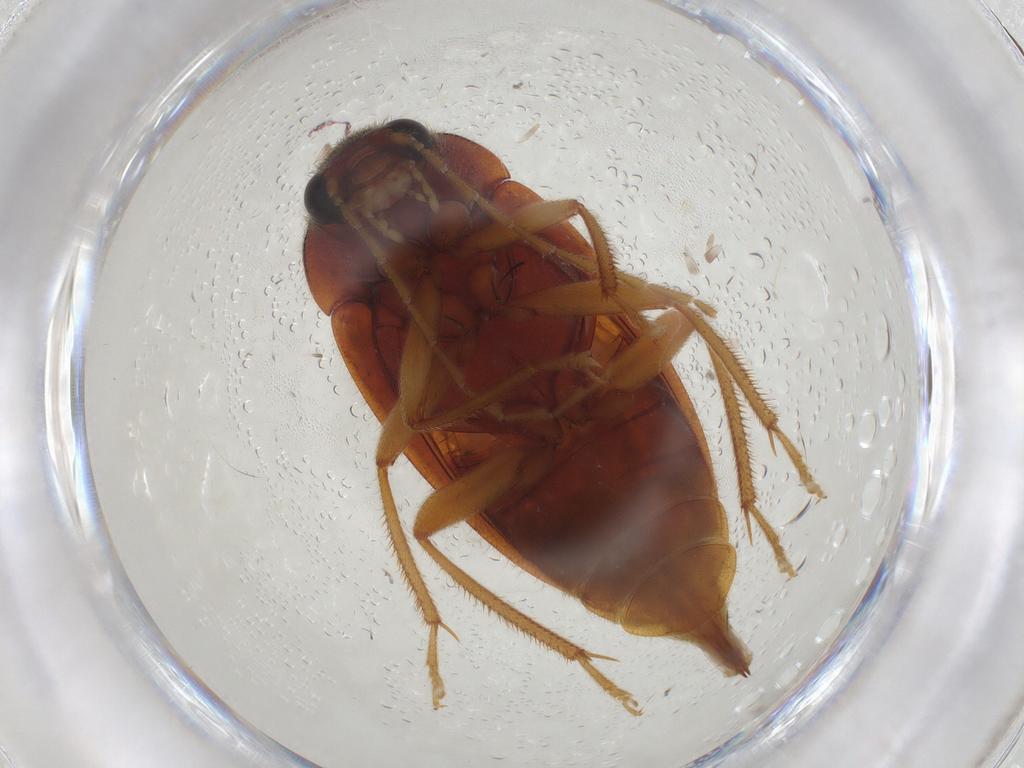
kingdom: Animalia
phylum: Arthropoda
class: Insecta
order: Coleoptera
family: Ptilodactylidae
